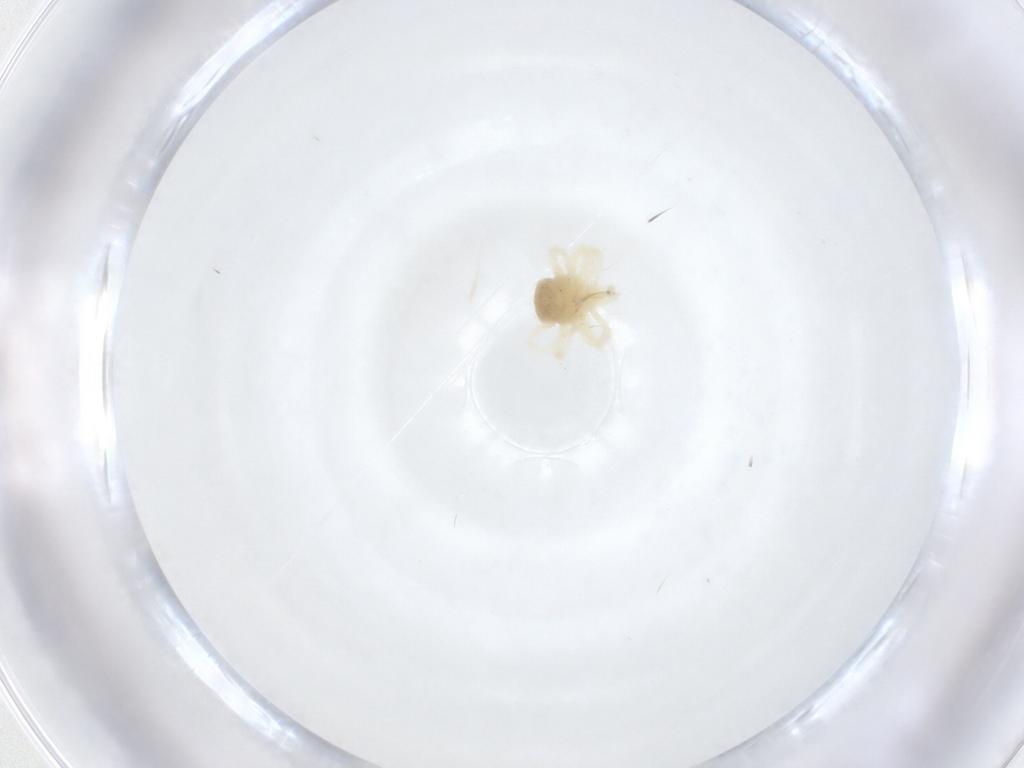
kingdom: Animalia
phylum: Arthropoda
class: Arachnida
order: Trombidiformes
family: Anystidae
